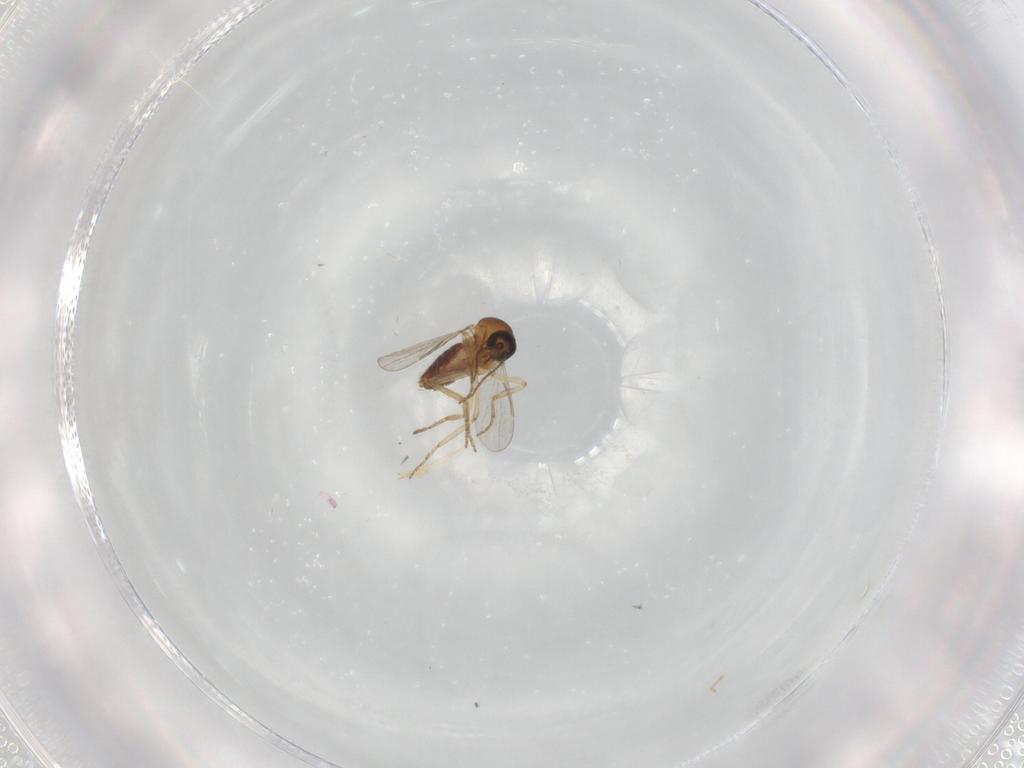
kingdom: Animalia
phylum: Arthropoda
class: Insecta
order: Diptera
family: Ceratopogonidae
